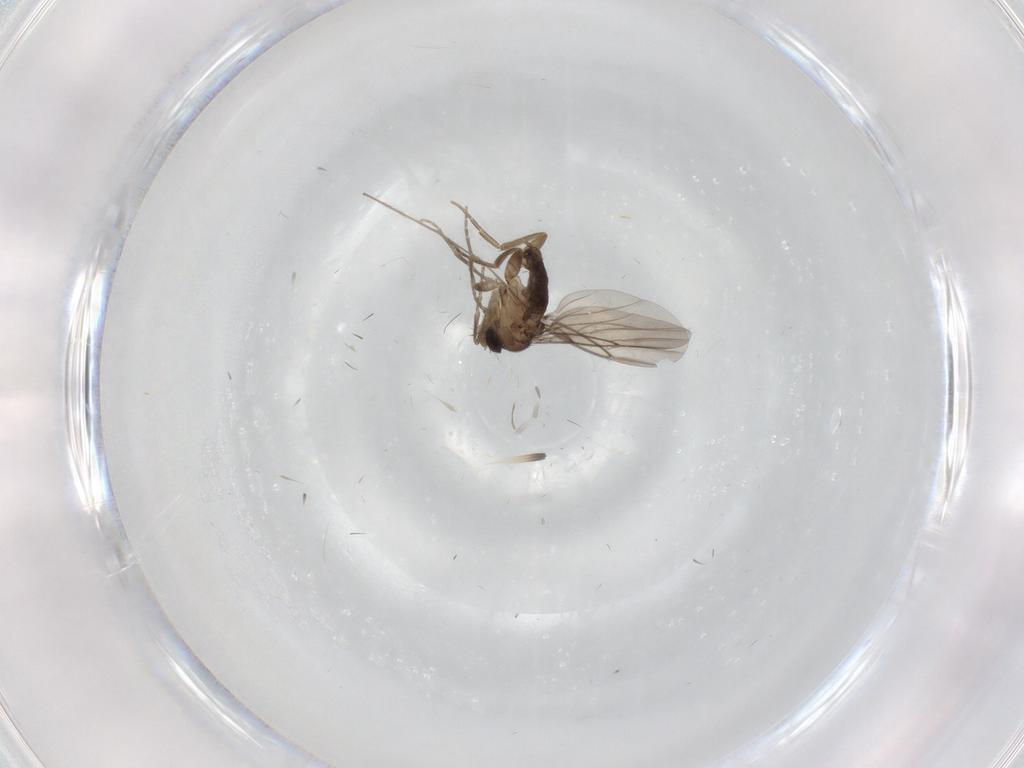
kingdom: Animalia
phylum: Arthropoda
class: Insecta
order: Diptera
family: Phoridae
